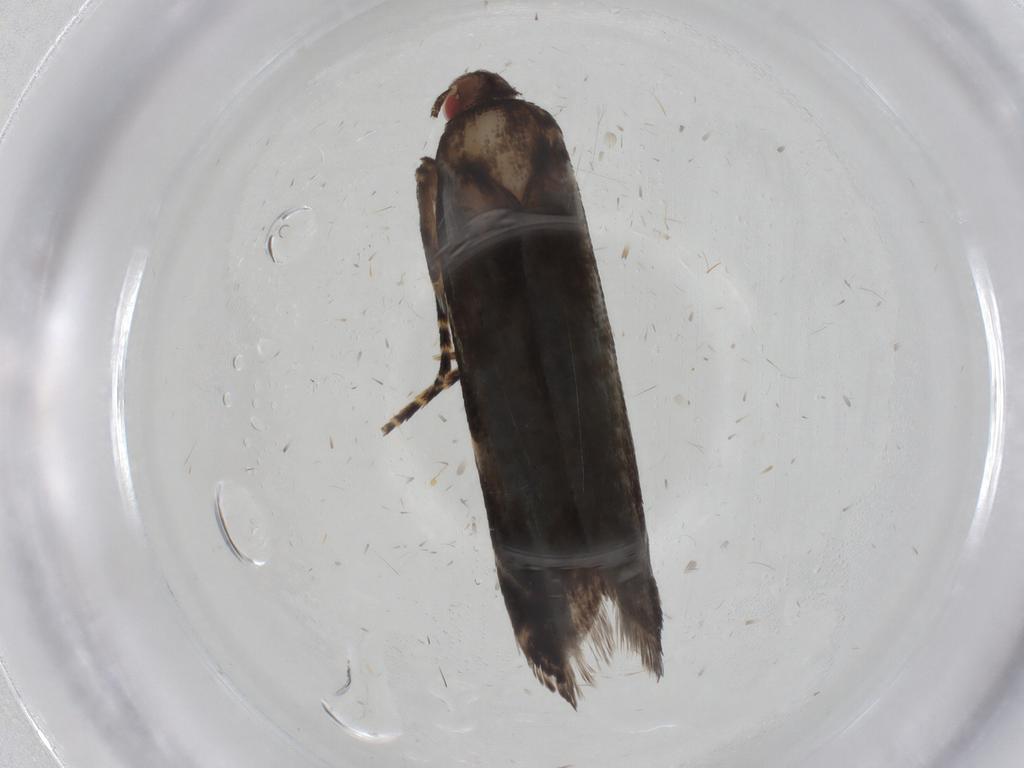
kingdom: Animalia
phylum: Arthropoda
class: Insecta
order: Lepidoptera
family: Gelechiidae
